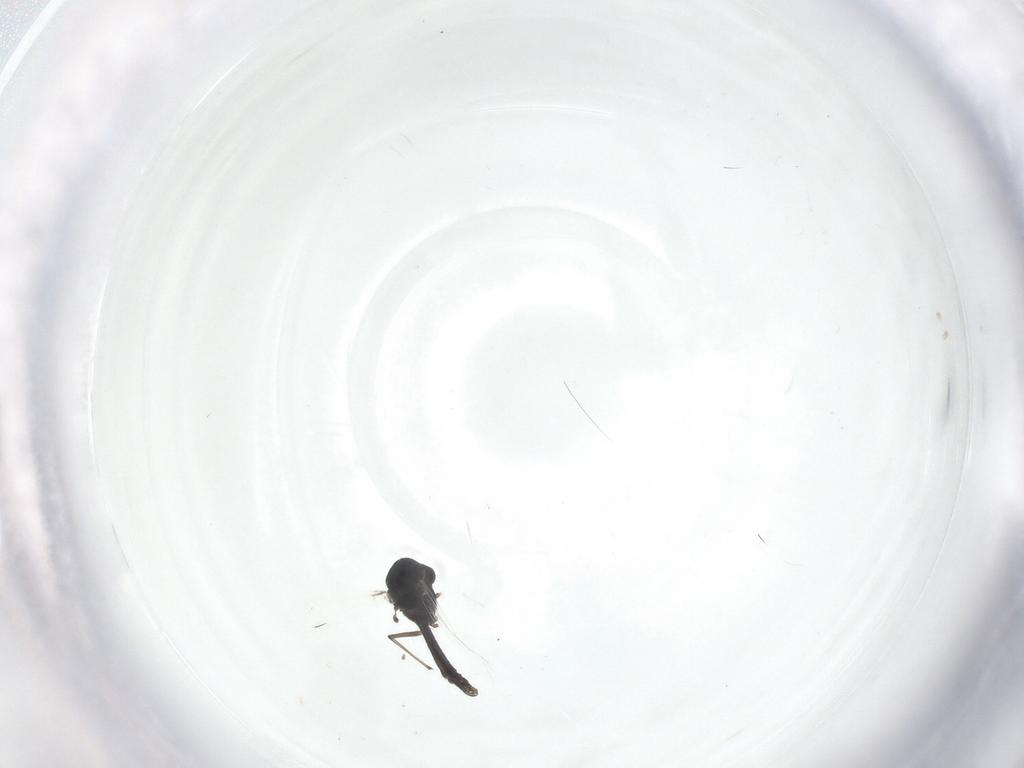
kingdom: Animalia
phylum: Arthropoda
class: Insecta
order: Diptera
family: Chironomidae
